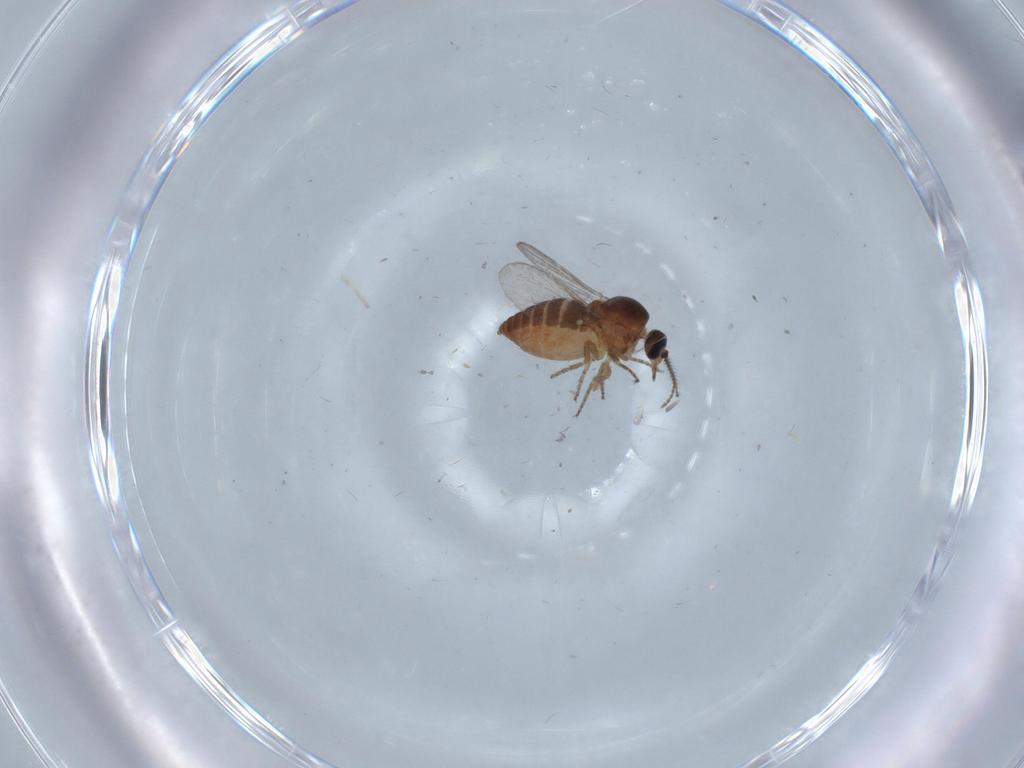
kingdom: Animalia
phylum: Arthropoda
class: Insecta
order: Diptera
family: Ceratopogonidae
